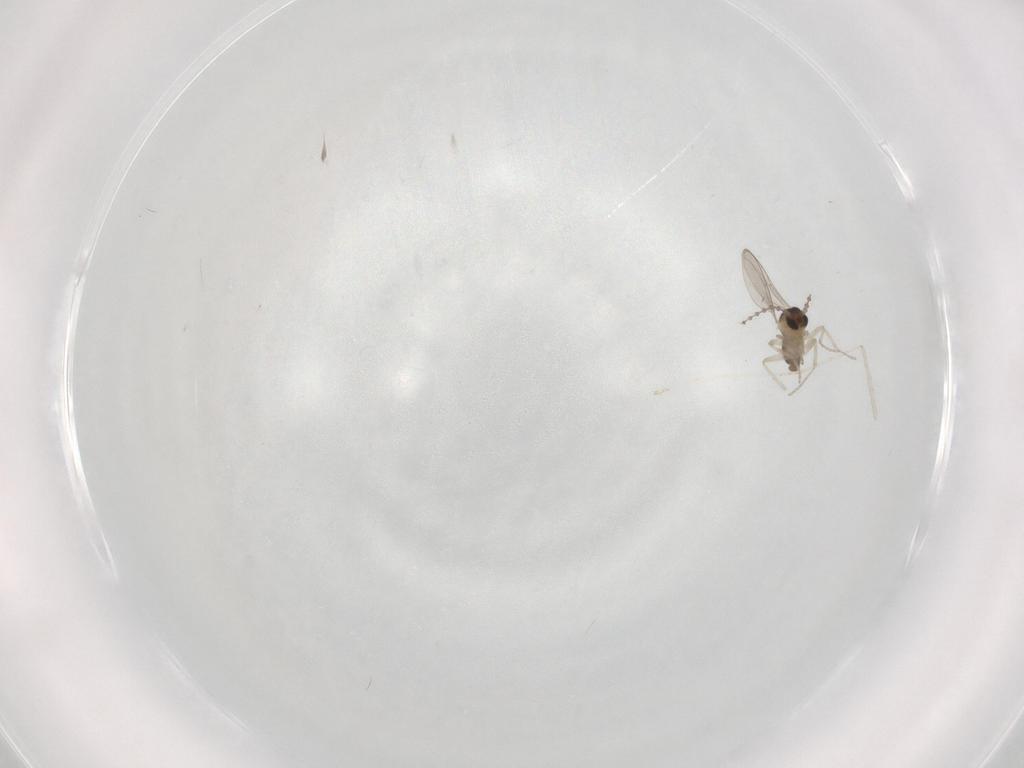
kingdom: Animalia
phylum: Arthropoda
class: Insecta
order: Diptera
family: Cecidomyiidae
